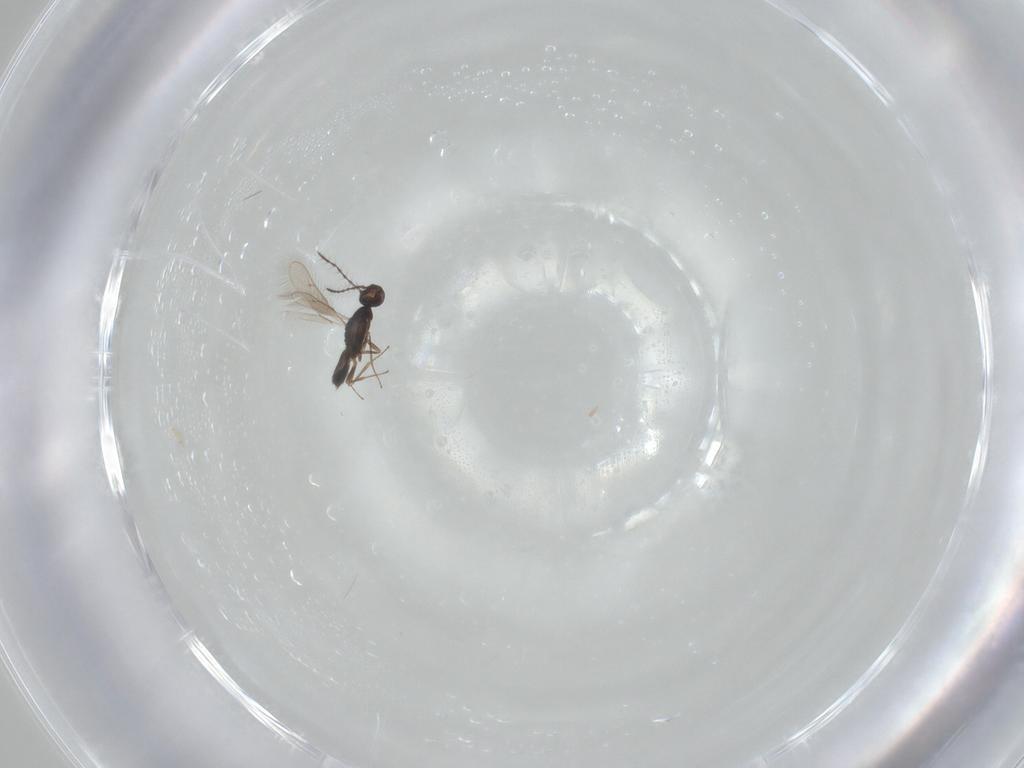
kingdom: Animalia
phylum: Arthropoda
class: Insecta
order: Hymenoptera
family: Pteromalidae
